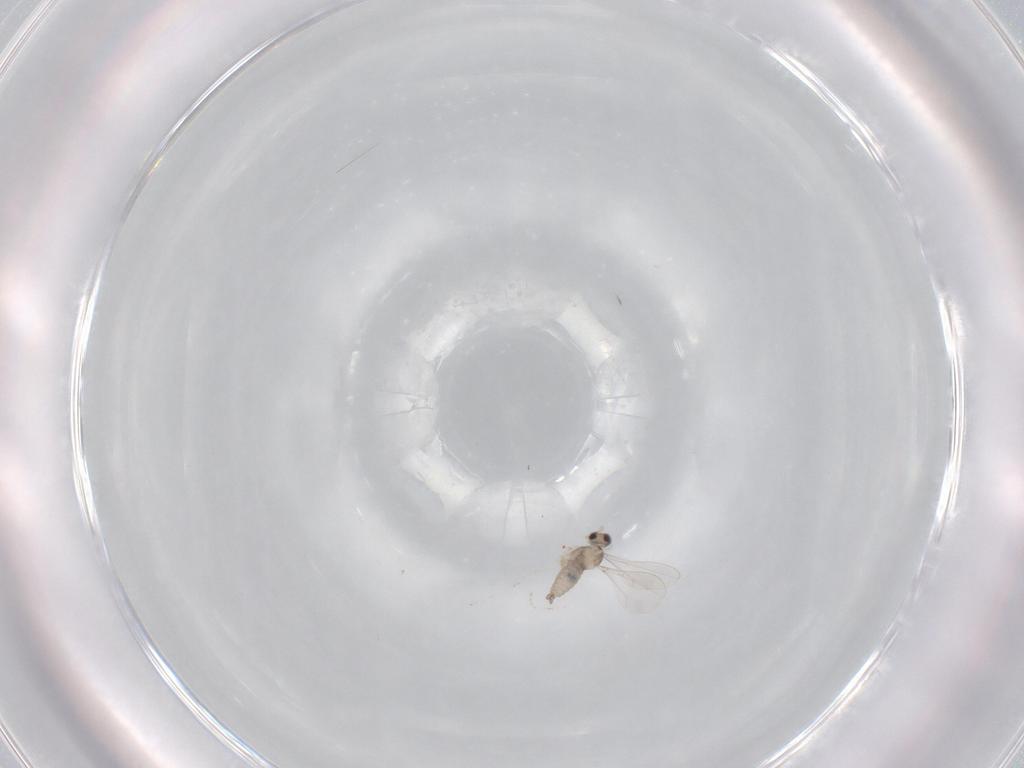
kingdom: Animalia
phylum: Arthropoda
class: Insecta
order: Diptera
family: Cecidomyiidae
